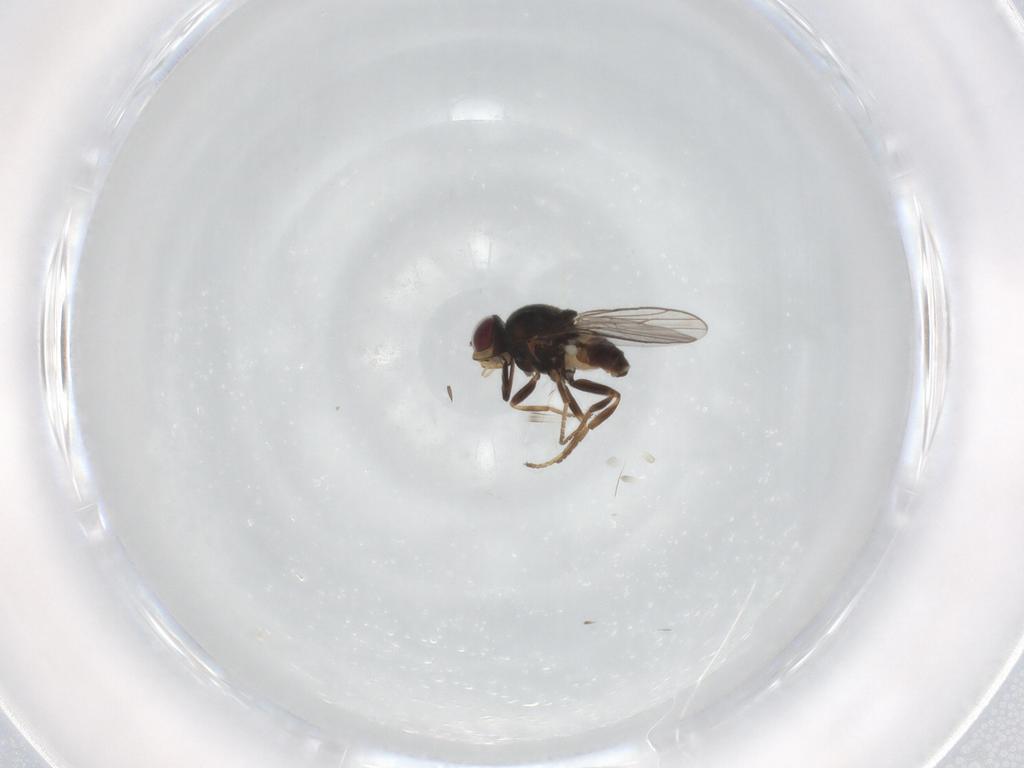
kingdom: Animalia
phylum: Arthropoda
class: Insecta
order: Diptera
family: Chloropidae
